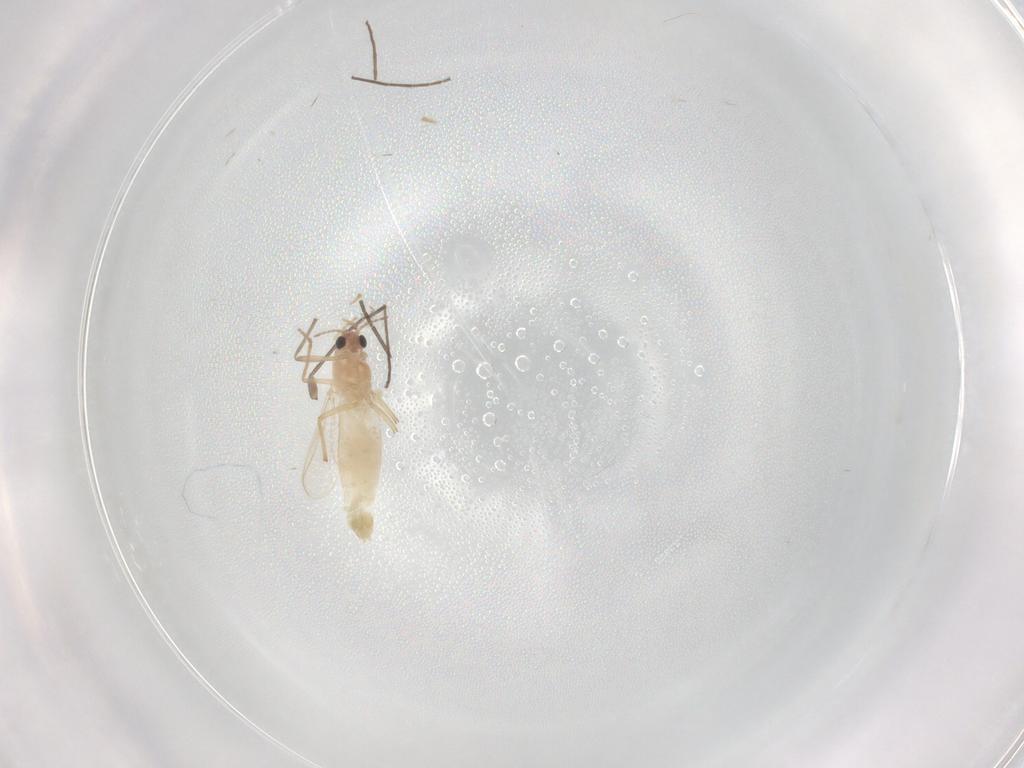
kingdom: Animalia
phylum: Arthropoda
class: Insecta
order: Diptera
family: Chironomidae
